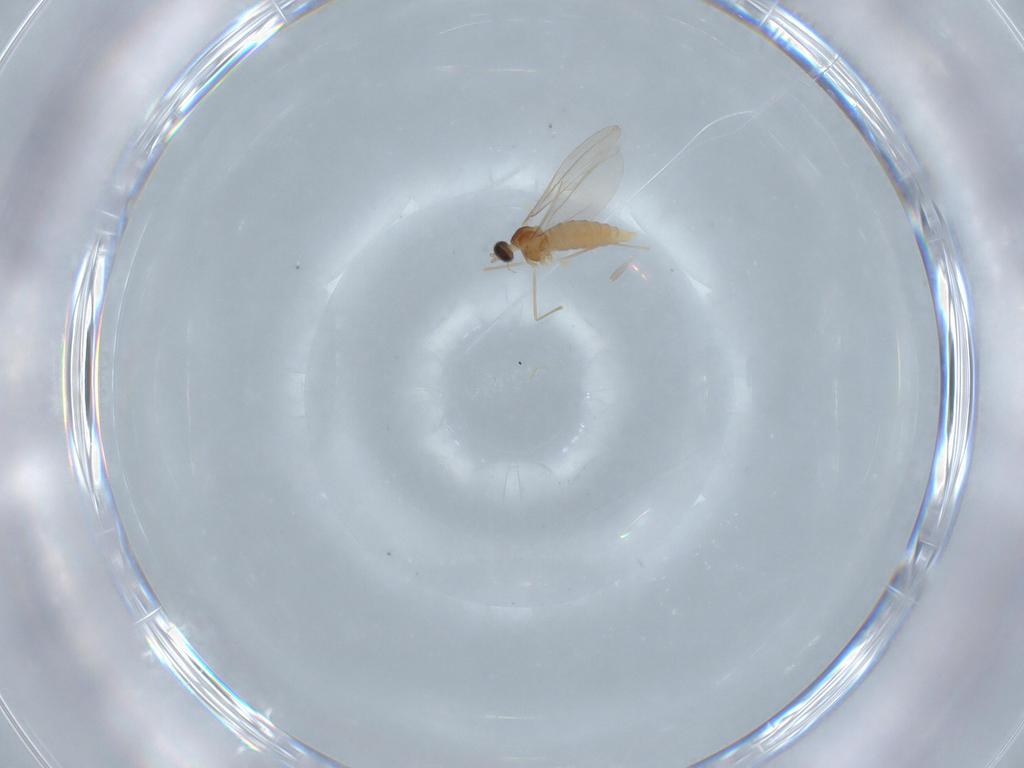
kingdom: Animalia
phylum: Arthropoda
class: Insecta
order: Diptera
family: Cecidomyiidae
